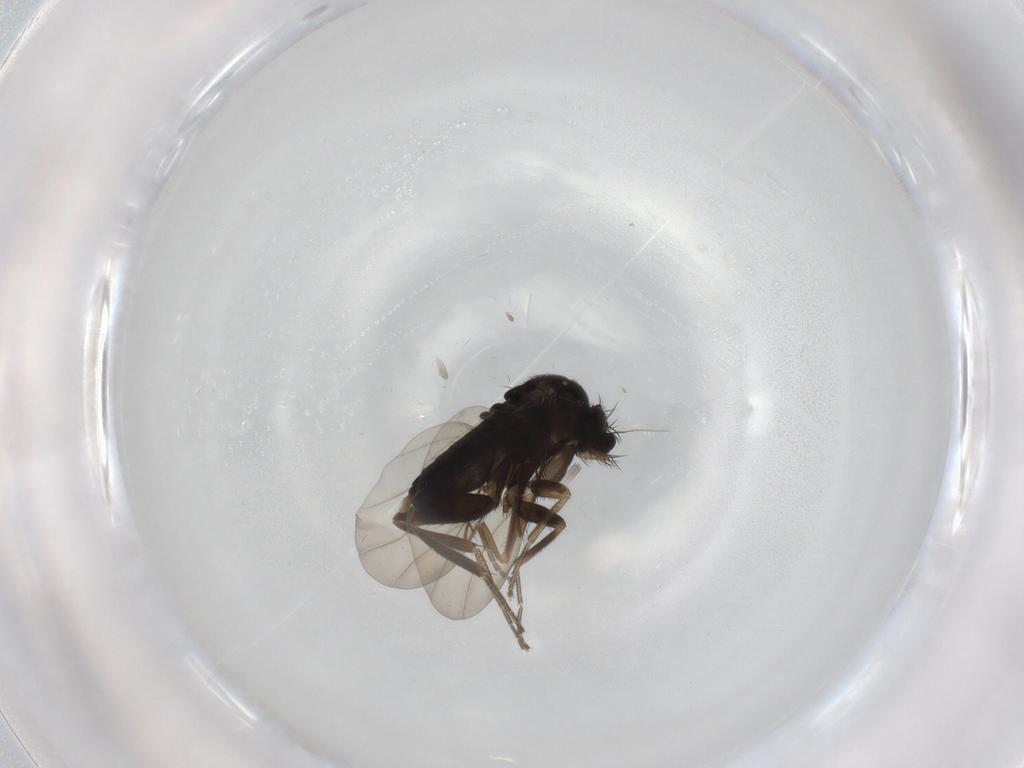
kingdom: Animalia
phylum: Arthropoda
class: Insecta
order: Diptera
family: Phoridae
